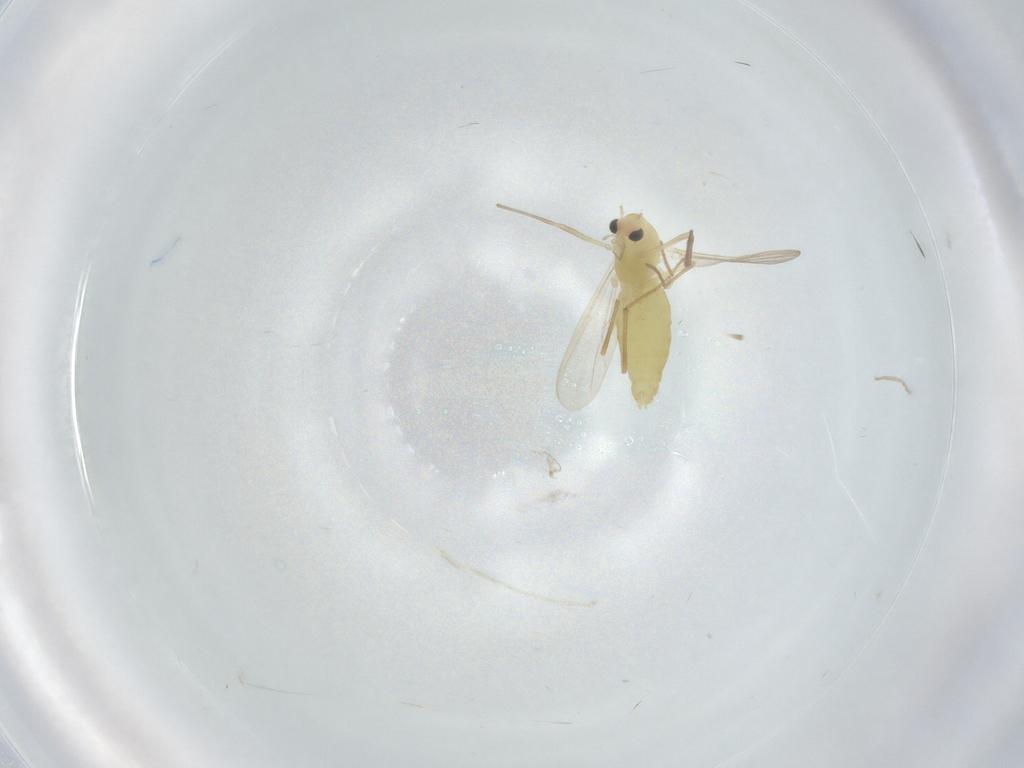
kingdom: Animalia
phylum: Arthropoda
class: Insecta
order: Diptera
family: Chironomidae
